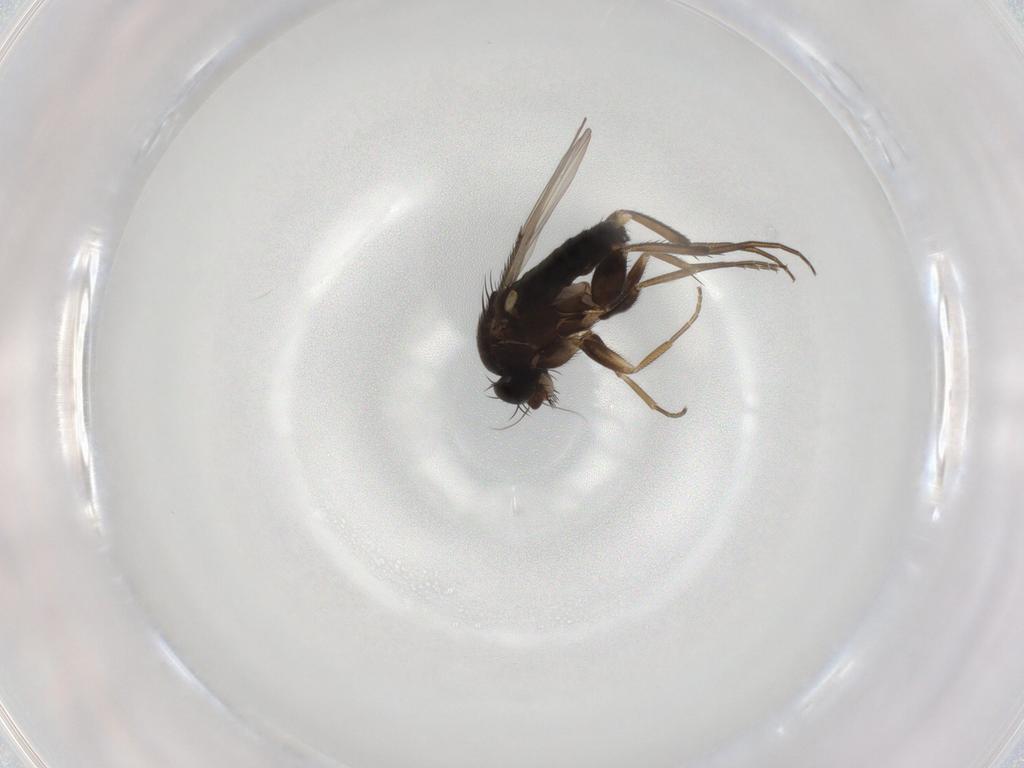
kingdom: Animalia
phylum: Arthropoda
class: Insecta
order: Diptera
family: Phoridae
